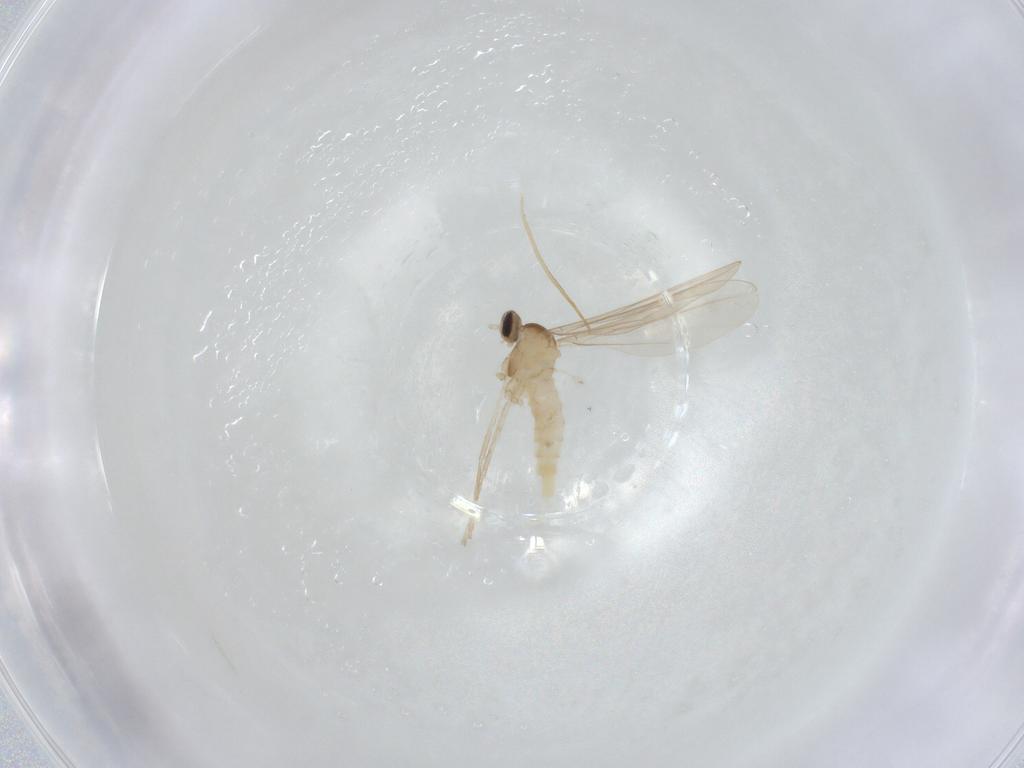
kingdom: Animalia
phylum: Arthropoda
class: Insecta
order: Diptera
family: Cecidomyiidae
